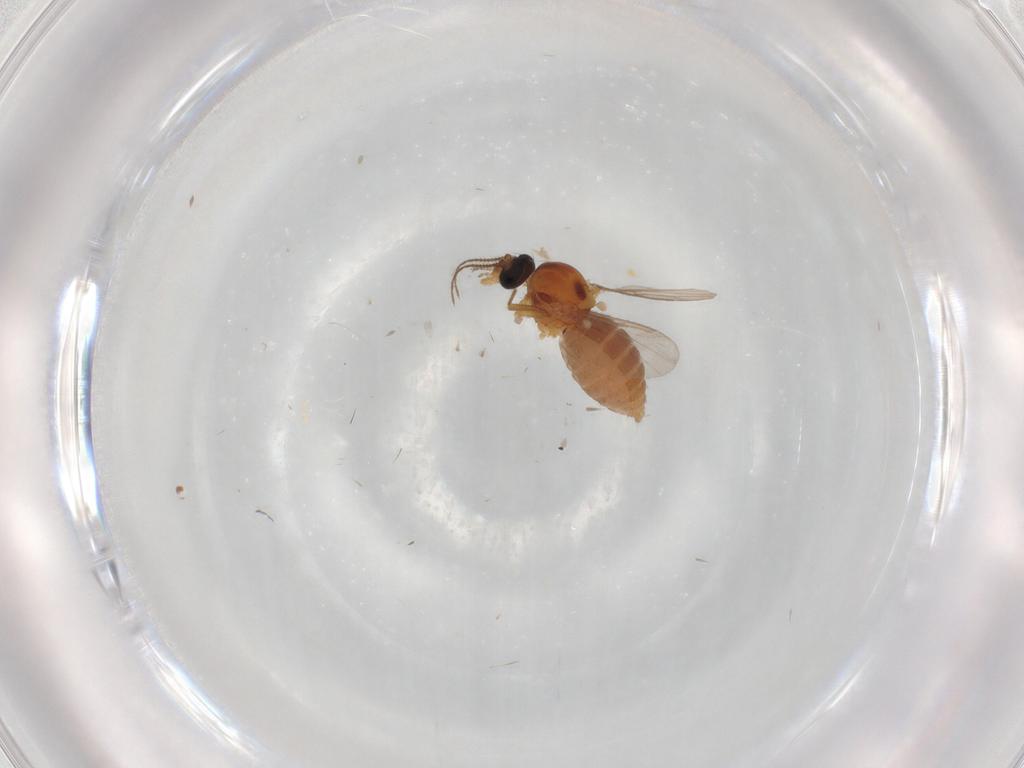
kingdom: Animalia
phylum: Arthropoda
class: Insecta
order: Diptera
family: Ceratopogonidae
